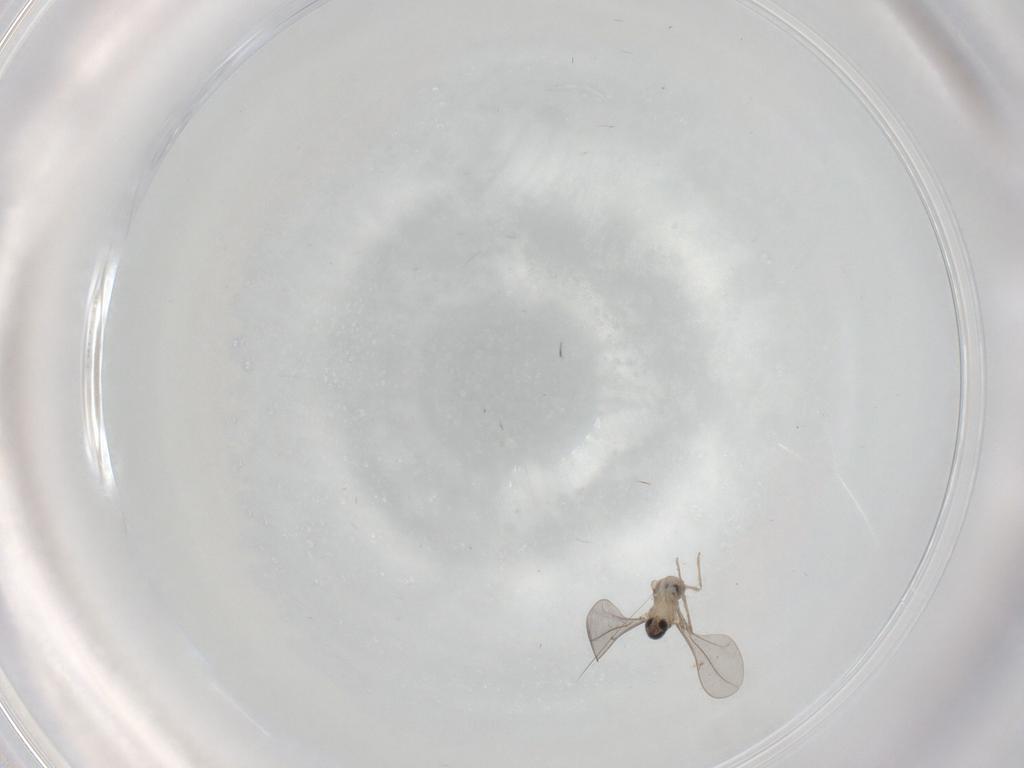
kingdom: Animalia
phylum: Arthropoda
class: Insecta
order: Diptera
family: Cecidomyiidae
